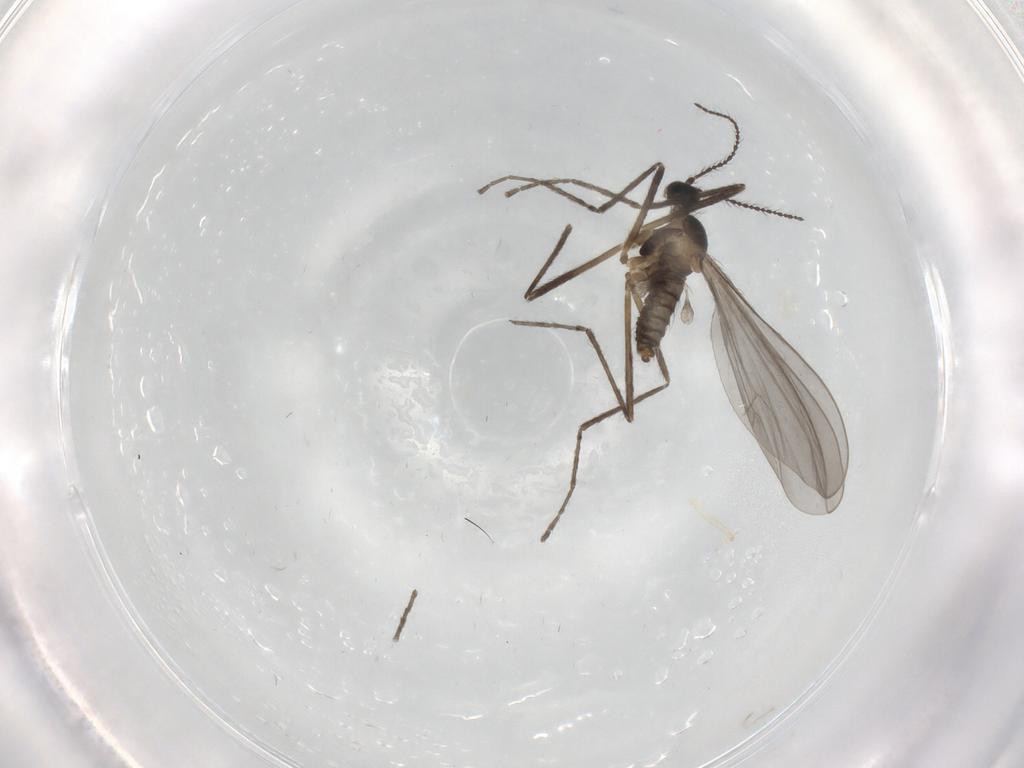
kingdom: Animalia
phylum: Arthropoda
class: Insecta
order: Diptera
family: Cecidomyiidae
